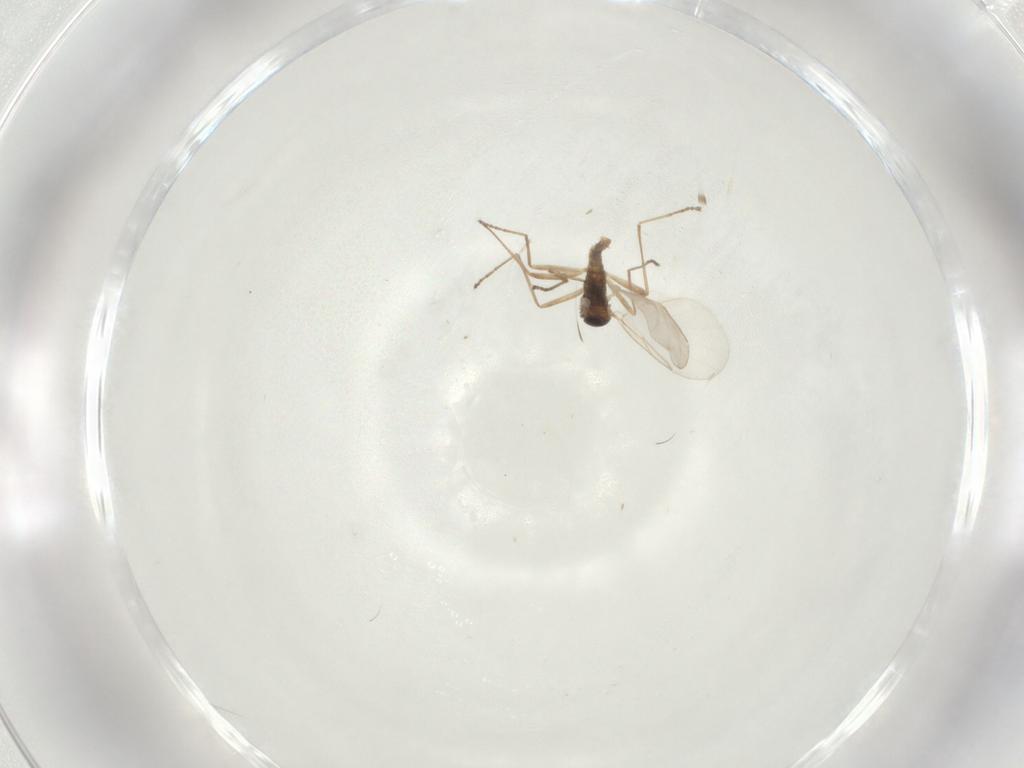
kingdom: Animalia
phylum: Arthropoda
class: Insecta
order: Diptera
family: Cecidomyiidae
